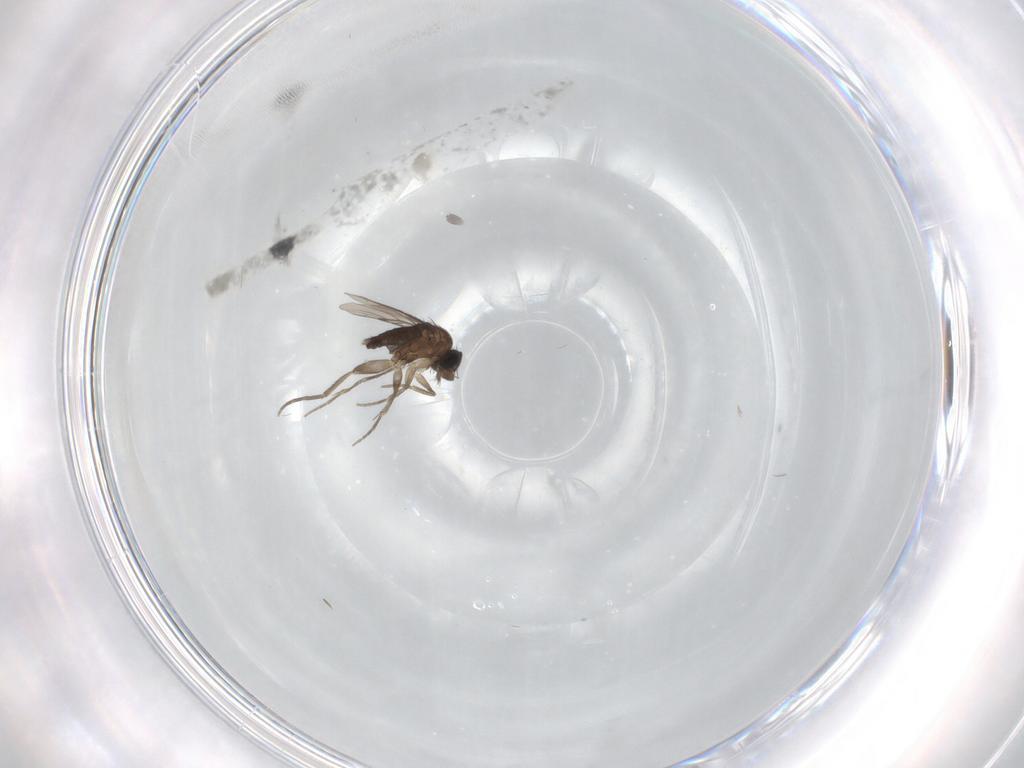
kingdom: Animalia
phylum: Arthropoda
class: Insecta
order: Diptera
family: Phoridae
